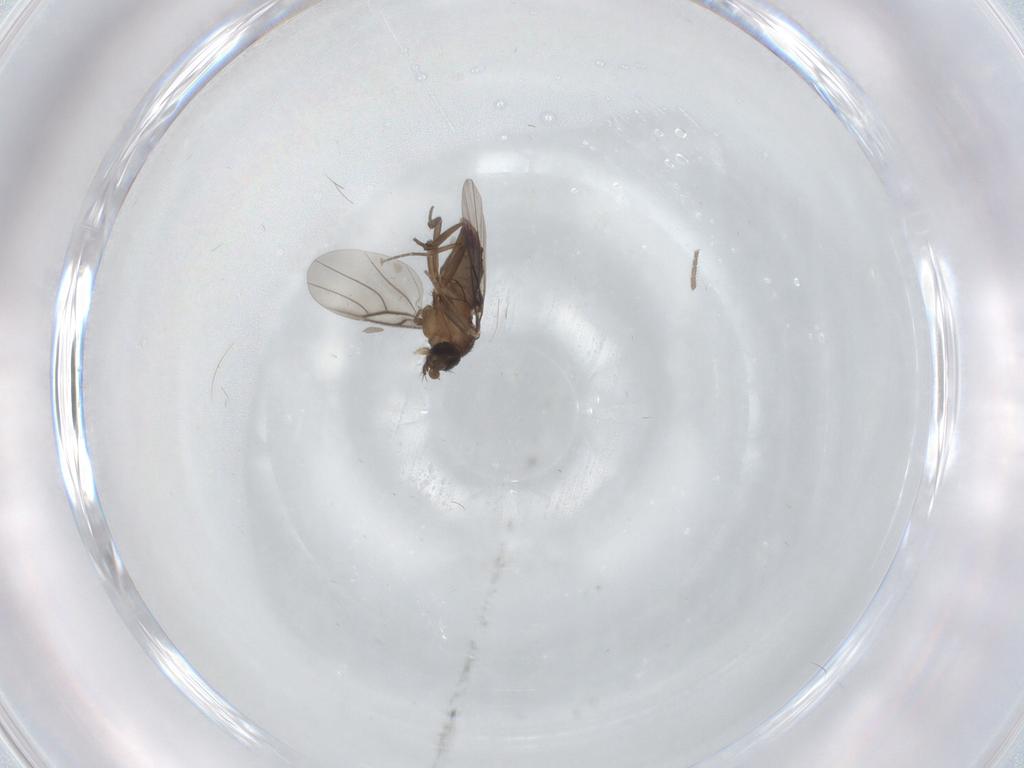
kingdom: Animalia
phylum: Arthropoda
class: Insecta
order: Diptera
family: Phoridae
